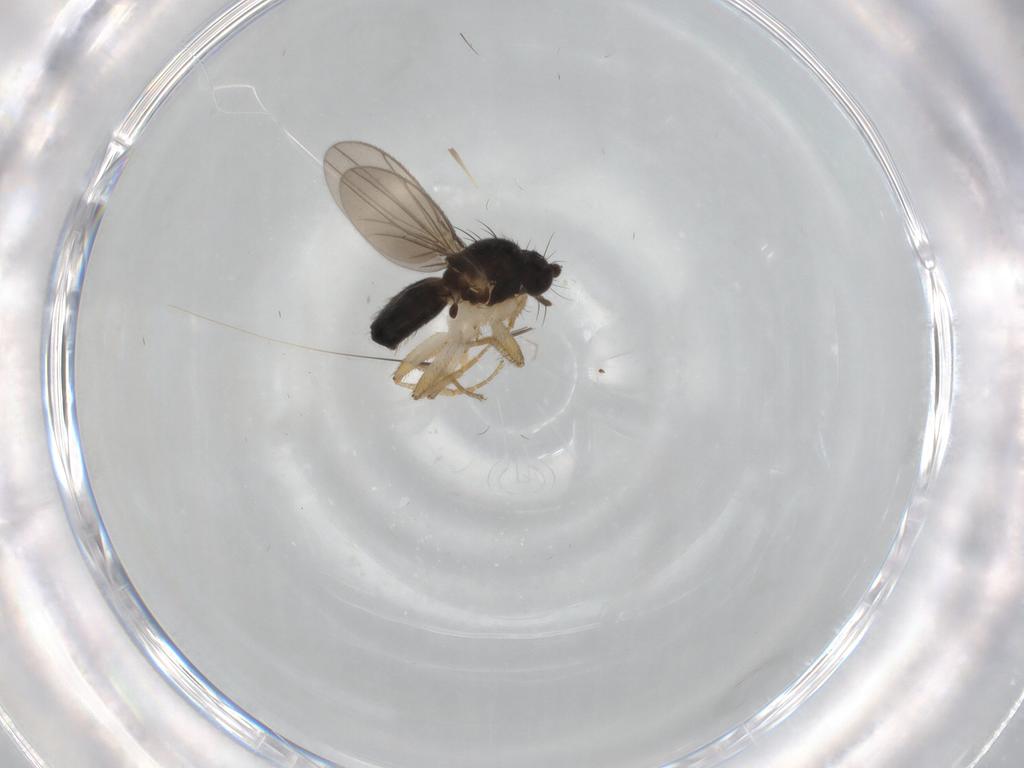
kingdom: Animalia
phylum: Arthropoda
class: Insecta
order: Diptera
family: Ceratopogonidae
